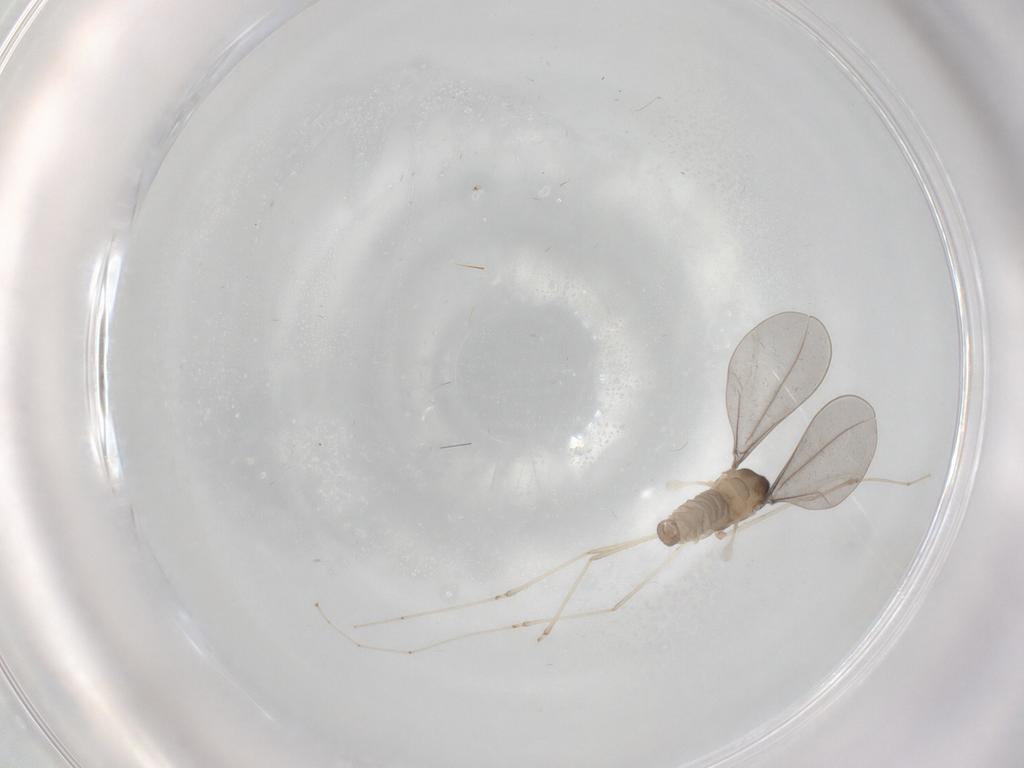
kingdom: Animalia
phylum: Arthropoda
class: Insecta
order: Diptera
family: Cecidomyiidae
